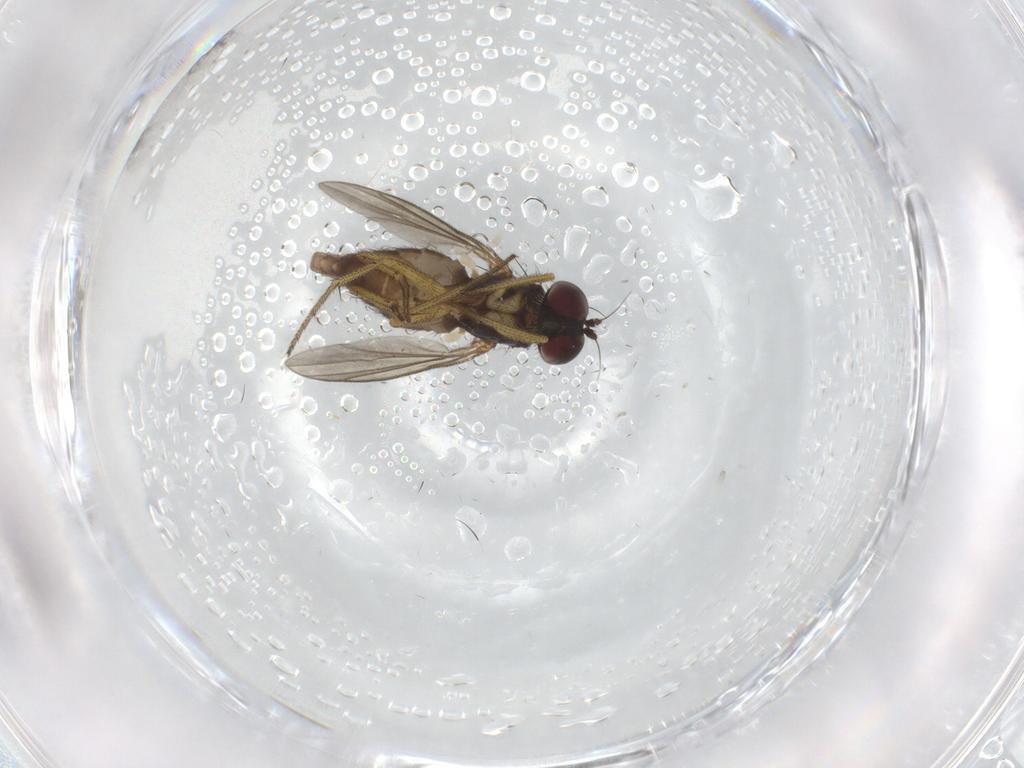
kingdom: Animalia
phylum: Arthropoda
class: Insecta
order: Diptera
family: Dolichopodidae
